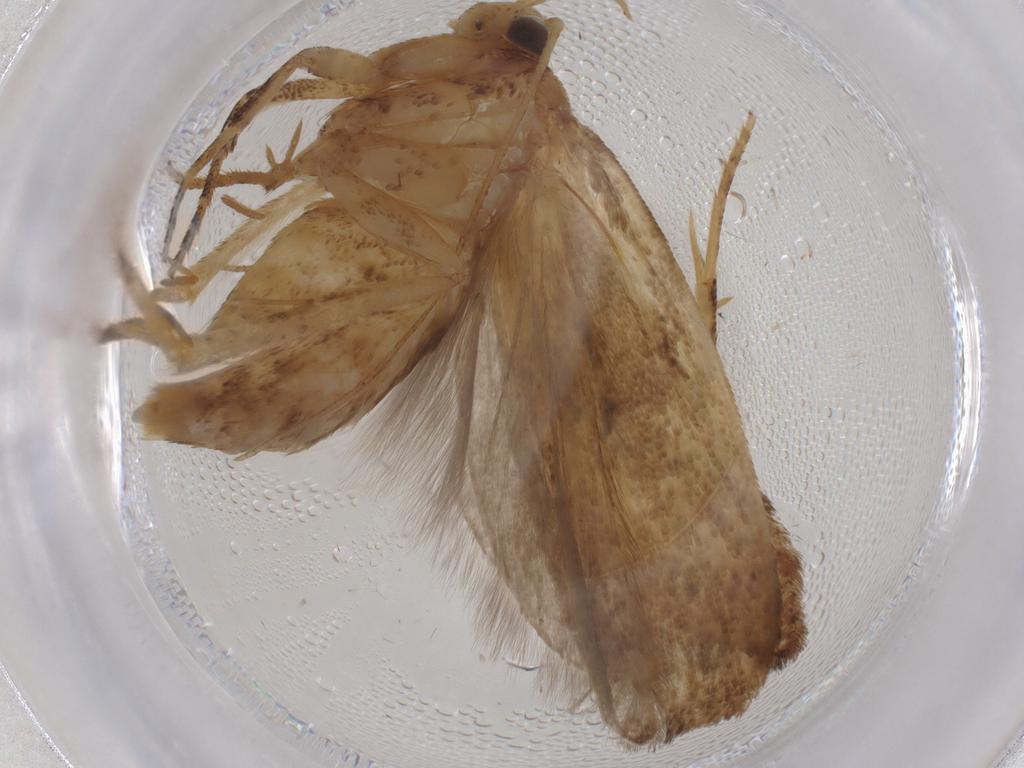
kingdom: Animalia
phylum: Arthropoda
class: Insecta
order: Lepidoptera
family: Gelechiidae
